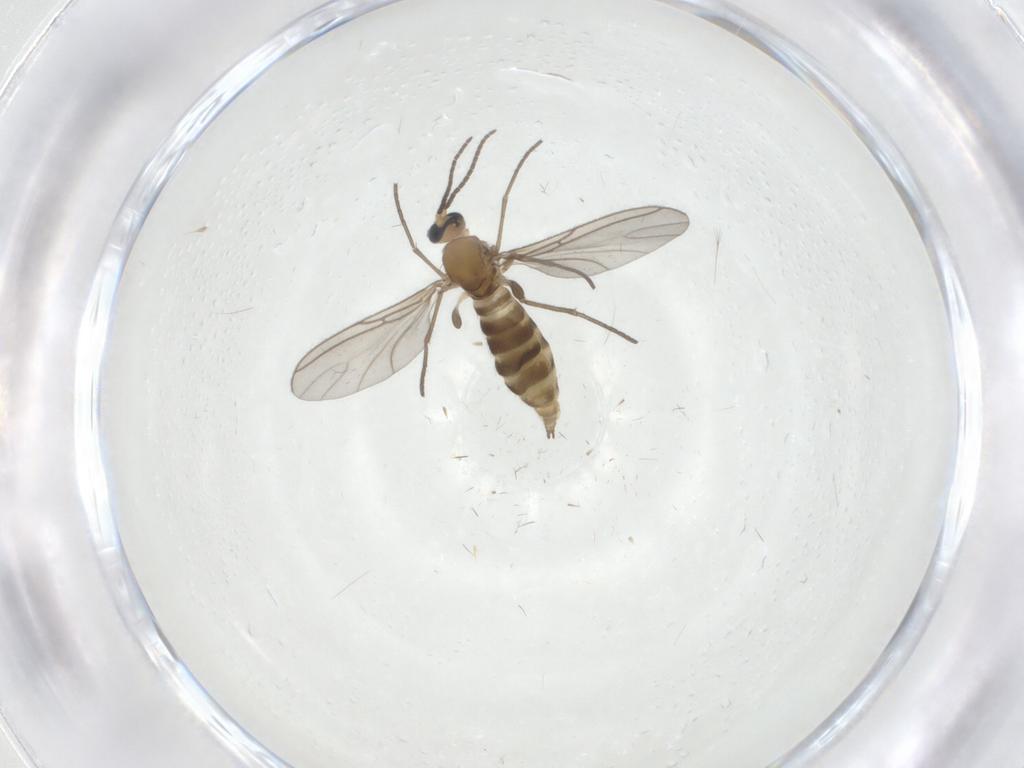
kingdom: Animalia
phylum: Arthropoda
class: Insecta
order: Diptera
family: Sciaridae
